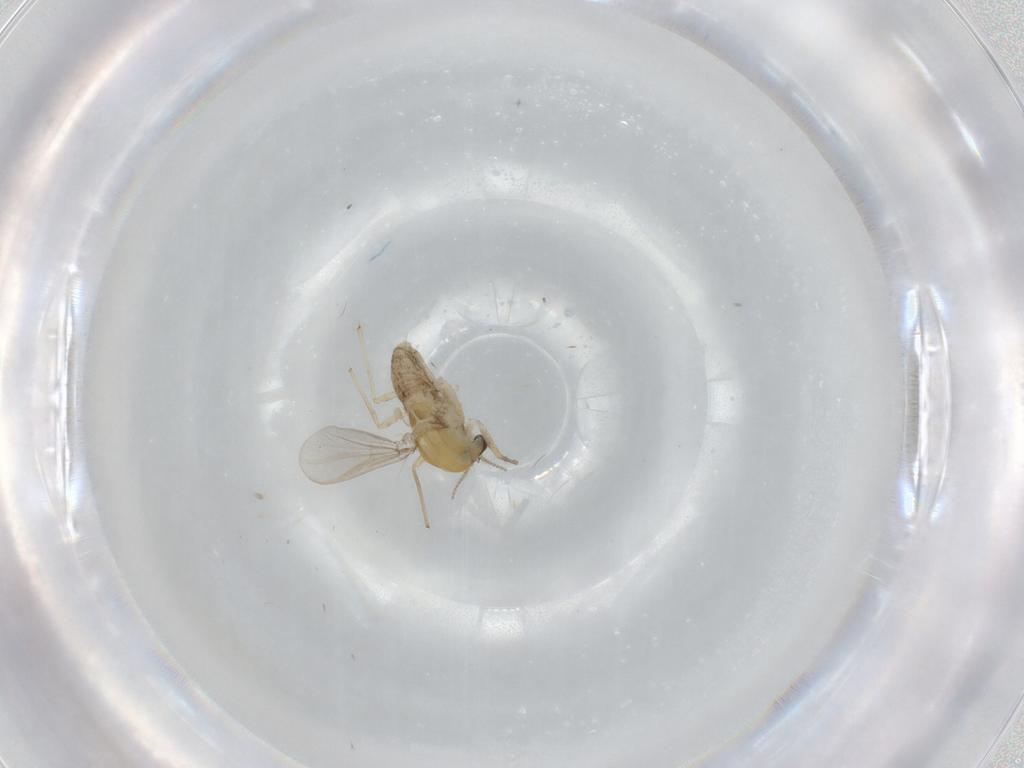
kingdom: Animalia
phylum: Arthropoda
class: Insecta
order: Diptera
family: Chironomidae
